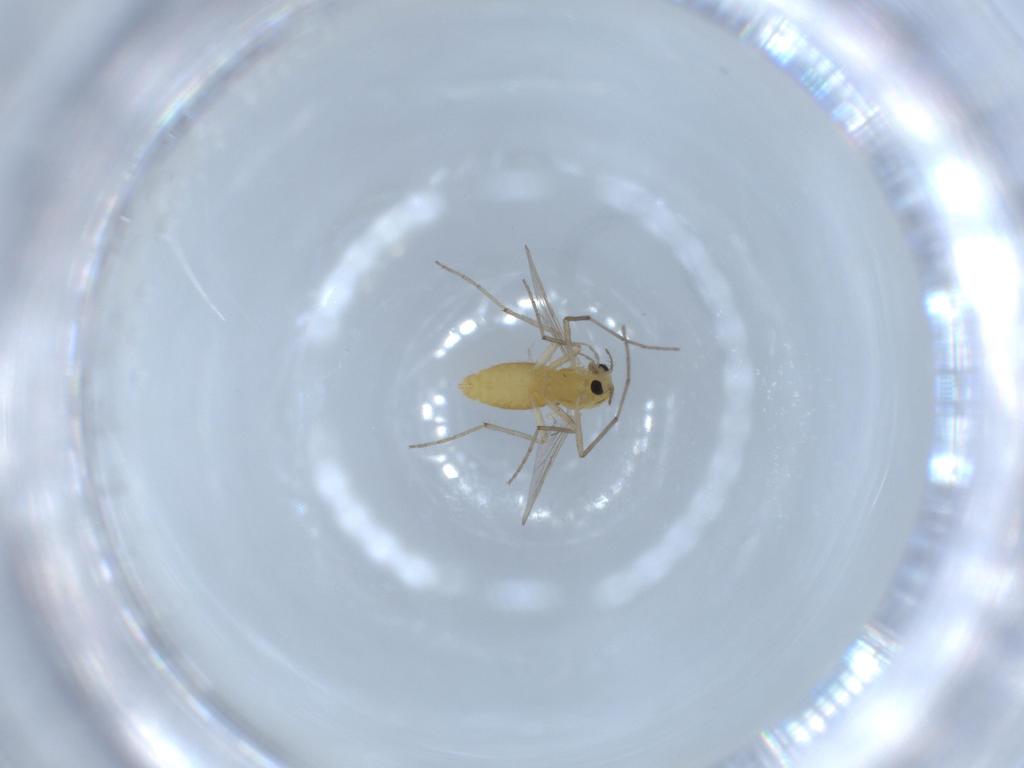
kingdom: Animalia
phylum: Arthropoda
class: Insecta
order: Diptera
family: Chironomidae
